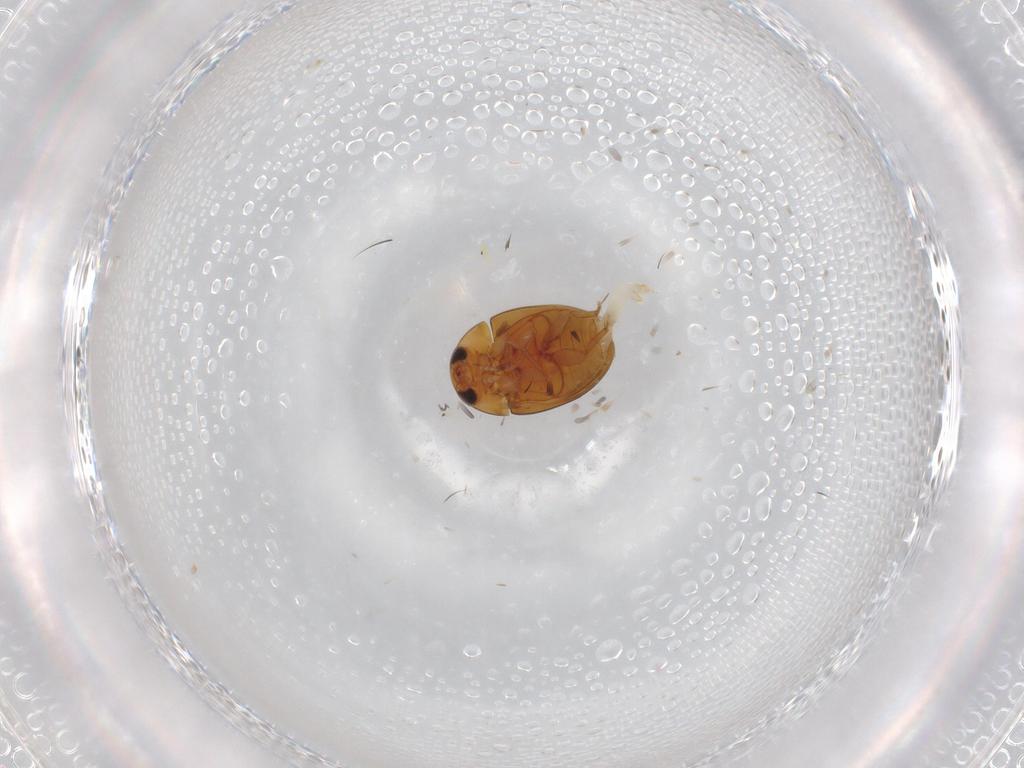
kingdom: Animalia
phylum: Arthropoda
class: Insecta
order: Coleoptera
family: Phalacridae
